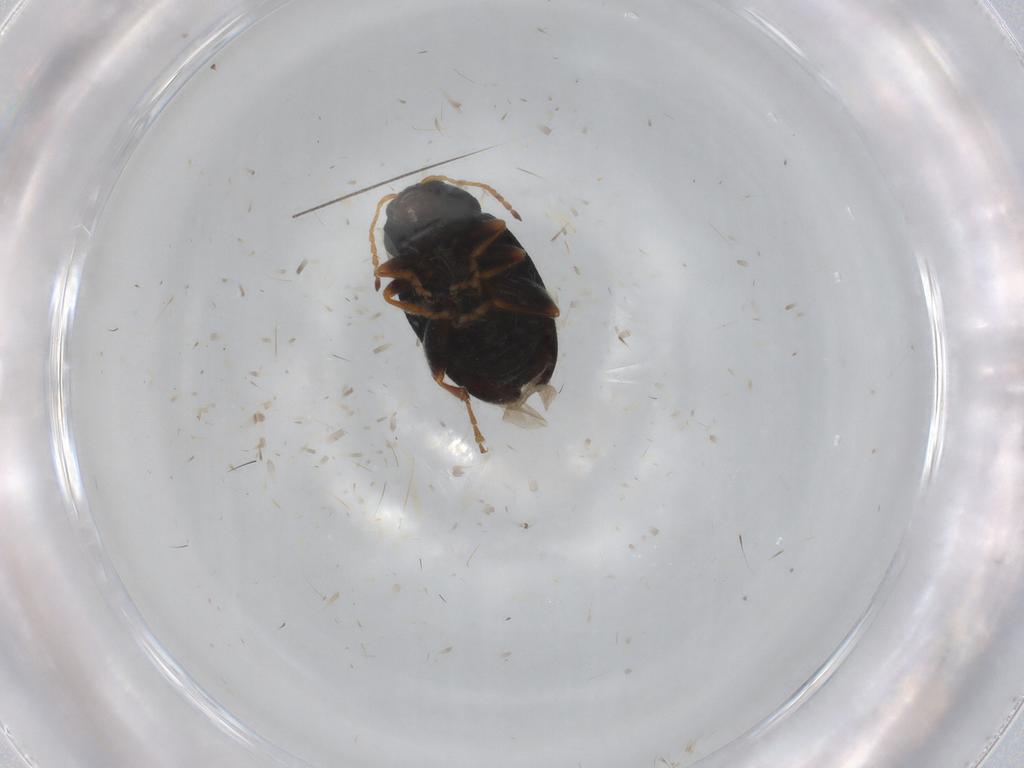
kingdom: Animalia
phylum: Arthropoda
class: Insecta
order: Coleoptera
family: Chrysomelidae
